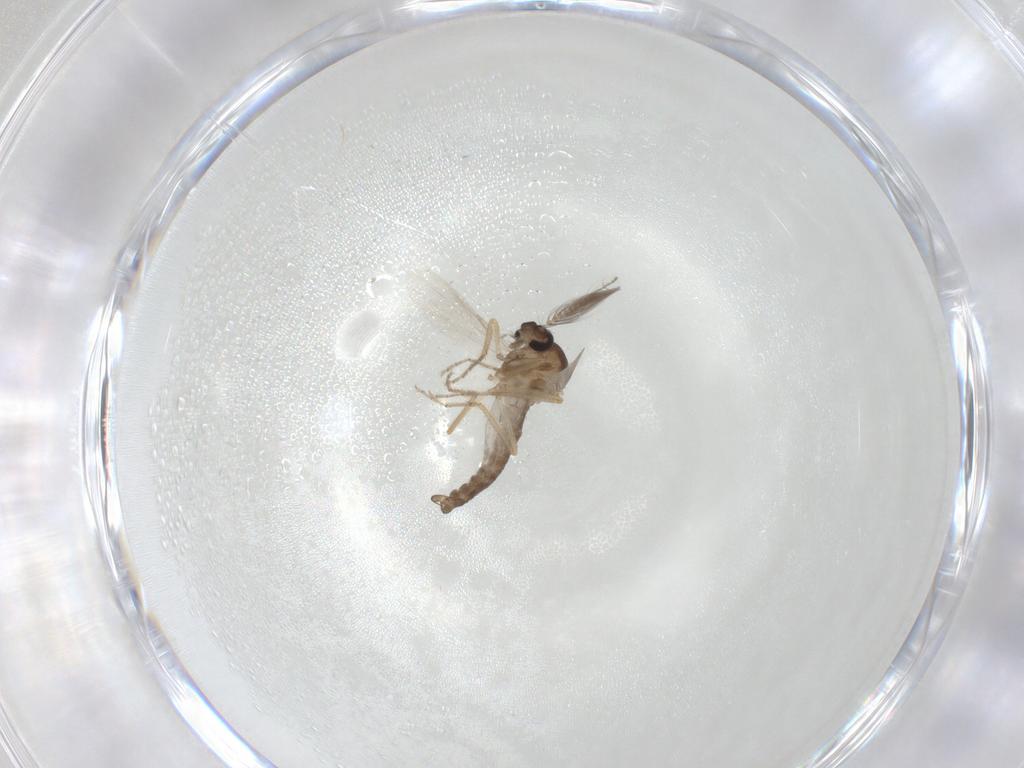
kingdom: Animalia
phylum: Arthropoda
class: Insecta
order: Diptera
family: Ceratopogonidae
